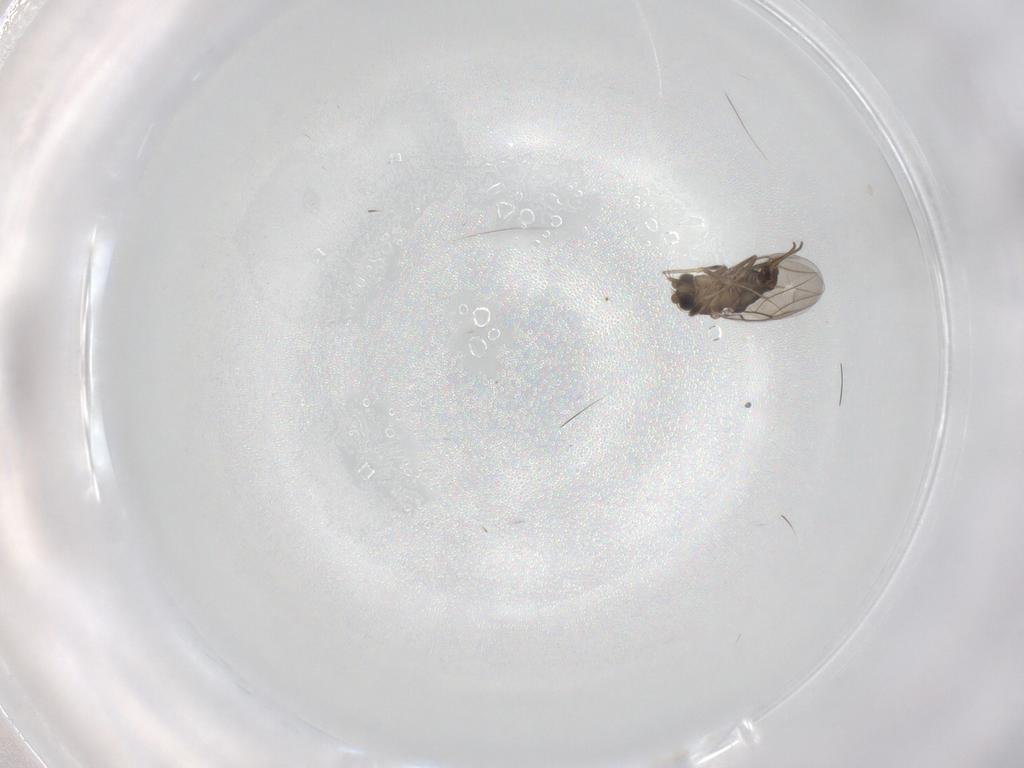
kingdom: Animalia
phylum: Arthropoda
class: Insecta
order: Diptera
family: Phoridae
